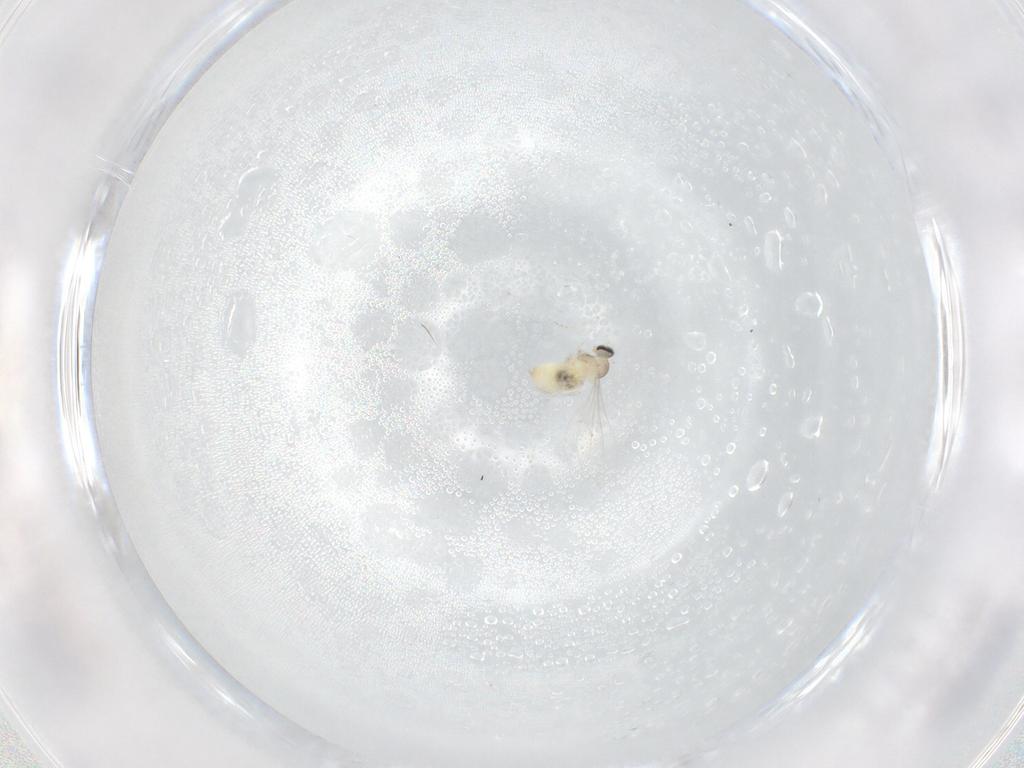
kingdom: Animalia
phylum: Arthropoda
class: Insecta
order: Diptera
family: Cecidomyiidae
